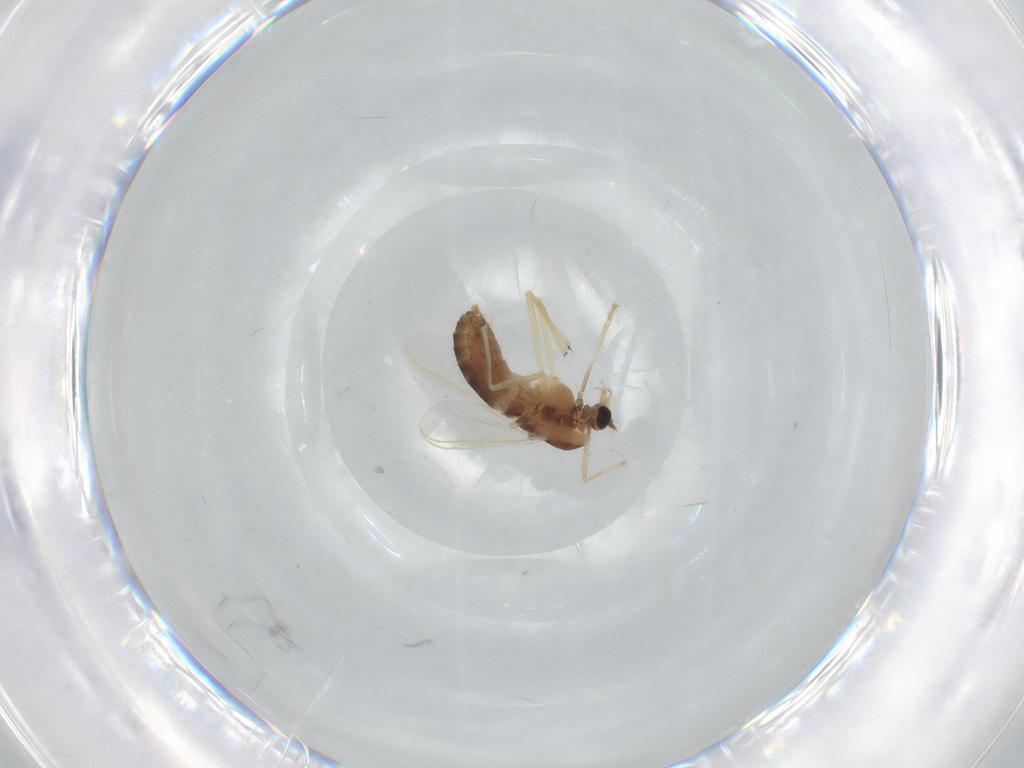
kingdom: Animalia
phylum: Arthropoda
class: Insecta
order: Diptera
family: Chironomidae
